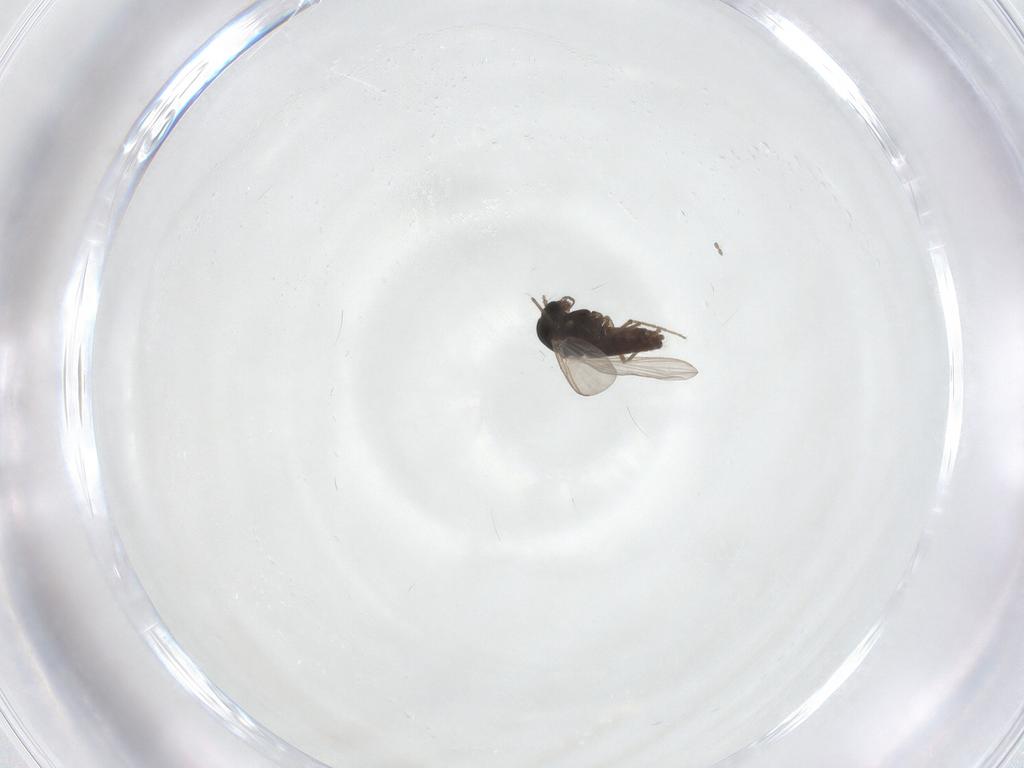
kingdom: Animalia
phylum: Arthropoda
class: Insecta
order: Diptera
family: Chironomidae
